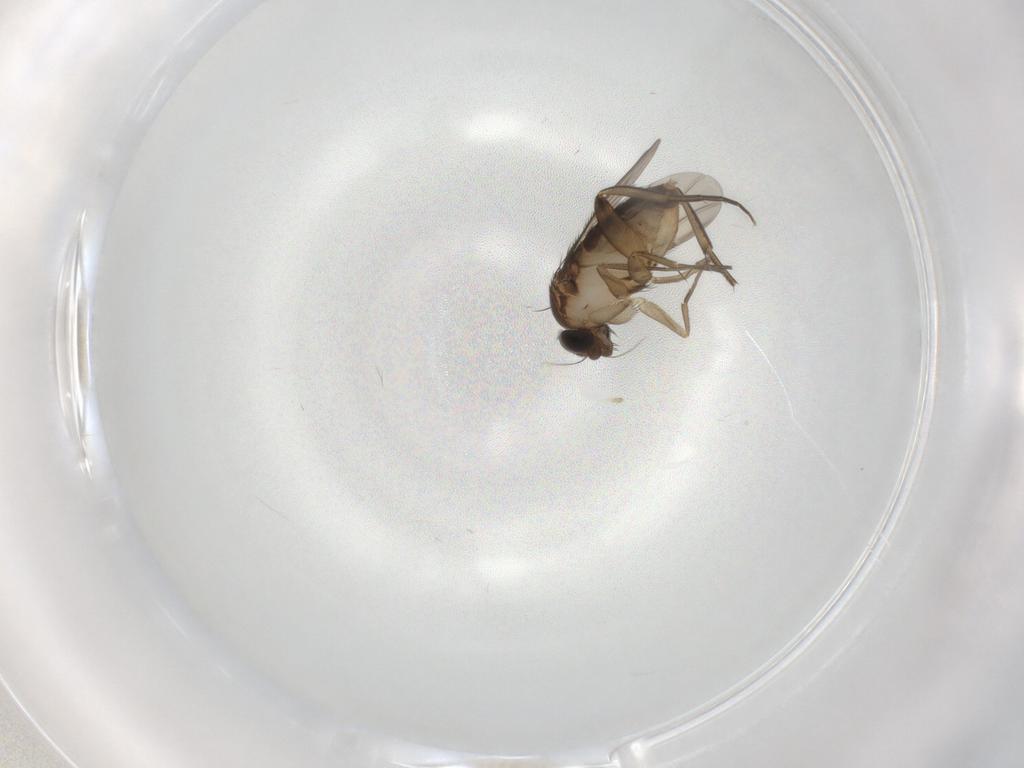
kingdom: Animalia
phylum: Arthropoda
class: Insecta
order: Diptera
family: Phoridae
